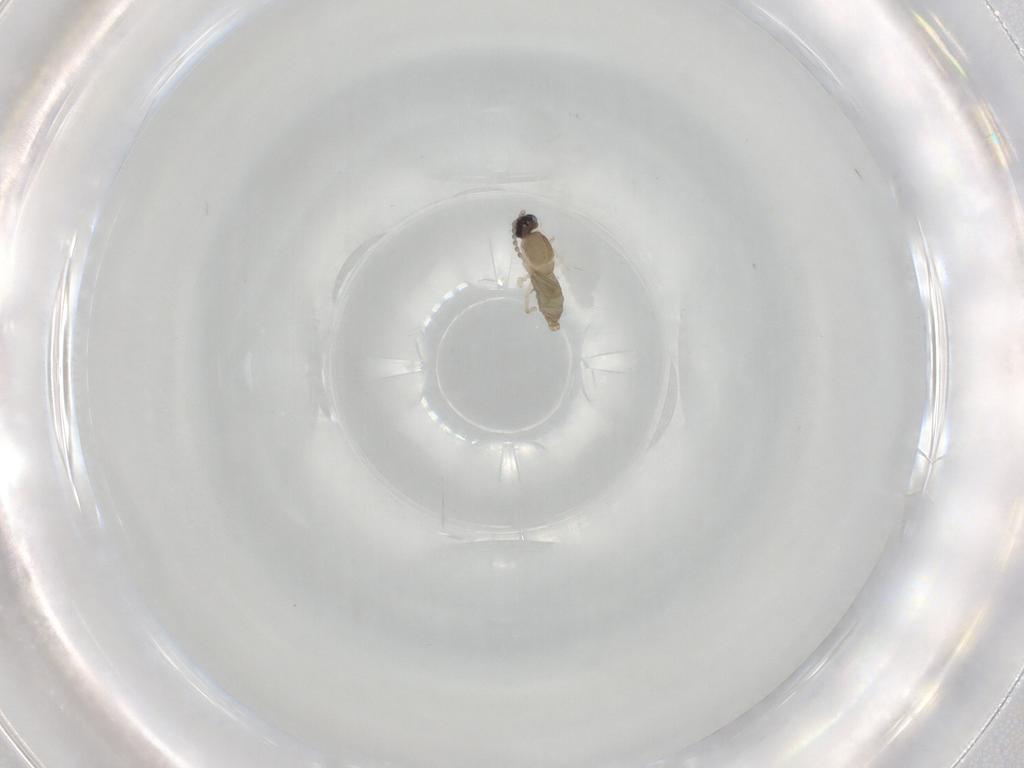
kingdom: Animalia
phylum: Arthropoda
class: Insecta
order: Diptera
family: Cecidomyiidae
